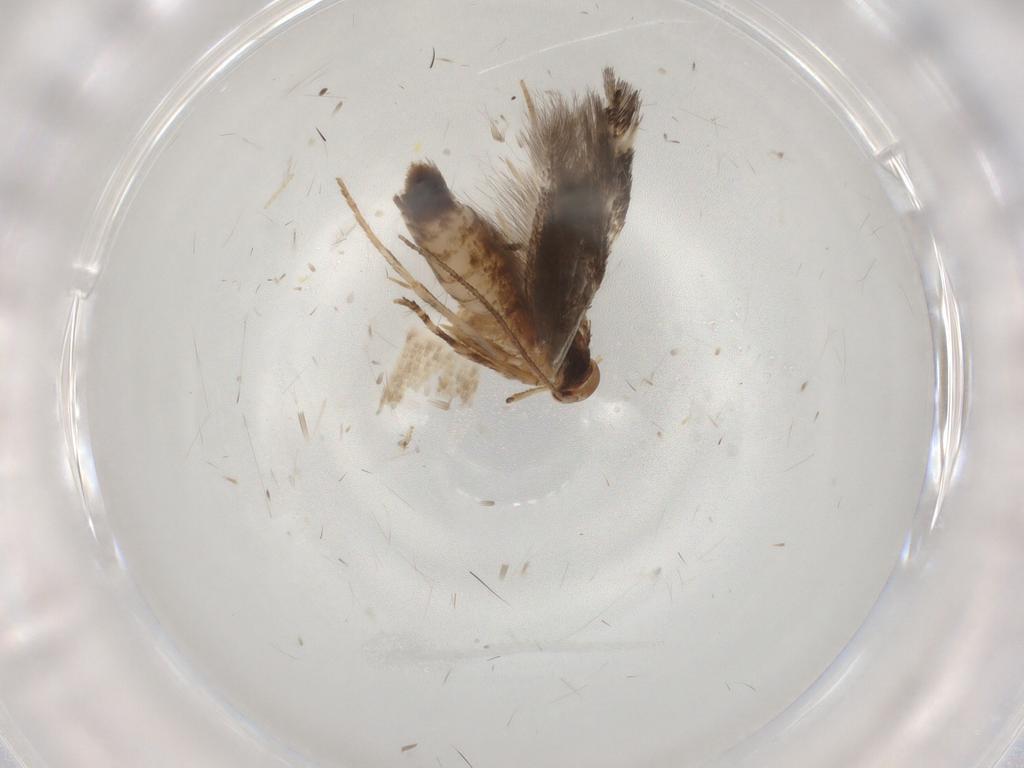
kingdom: Animalia
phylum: Arthropoda
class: Insecta
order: Lepidoptera
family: Elachistidae
